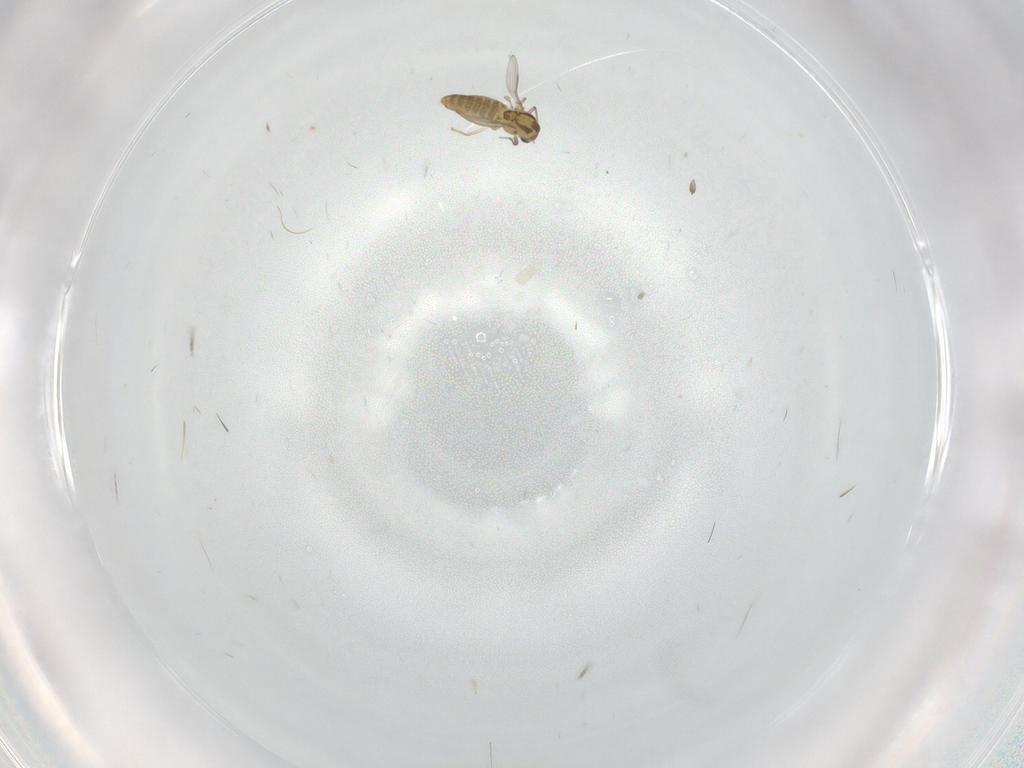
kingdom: Animalia
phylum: Arthropoda
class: Insecta
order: Diptera
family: Chironomidae
